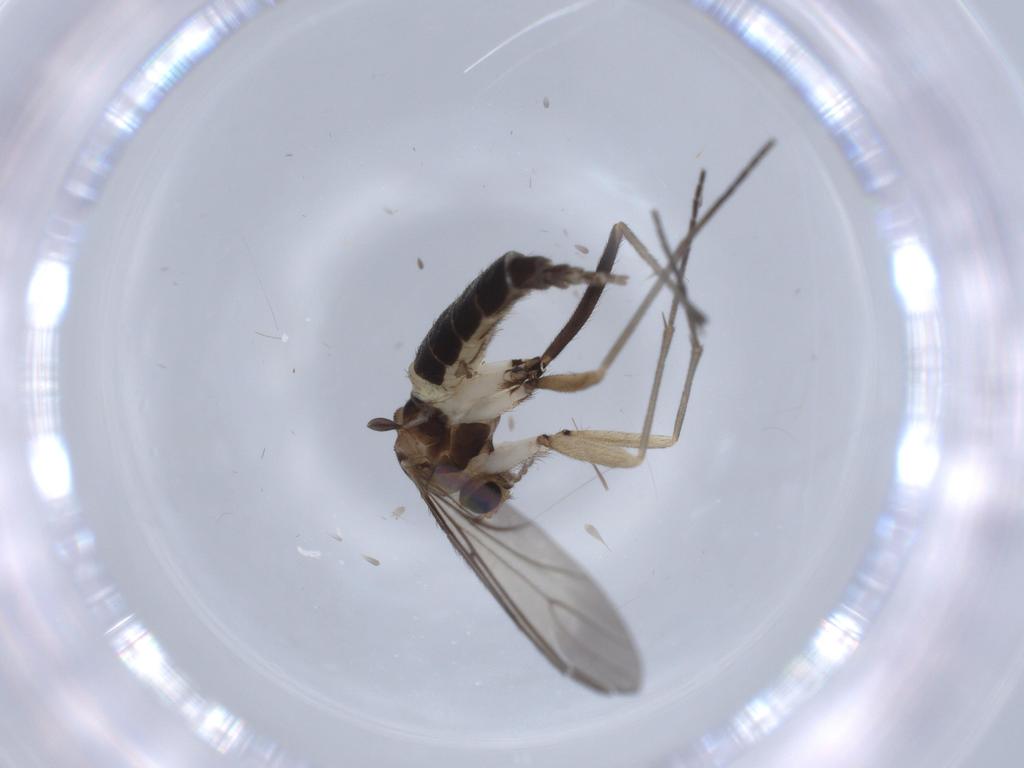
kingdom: Animalia
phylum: Arthropoda
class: Insecta
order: Diptera
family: Sciaridae
